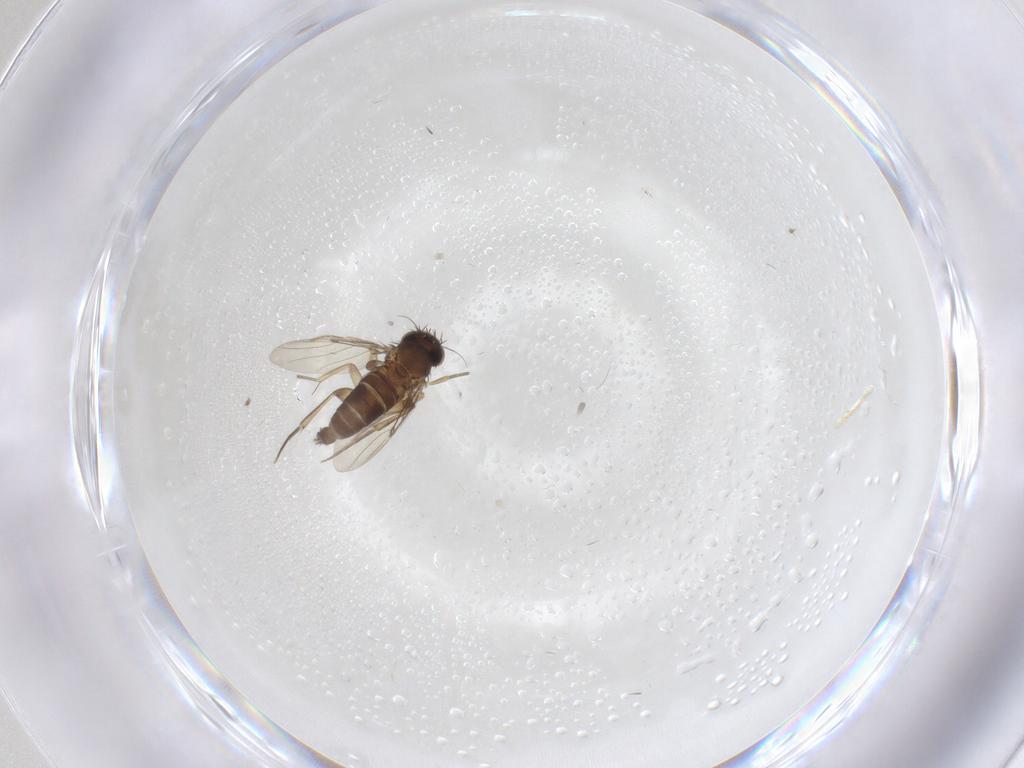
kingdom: Animalia
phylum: Arthropoda
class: Insecta
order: Diptera
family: Phoridae
